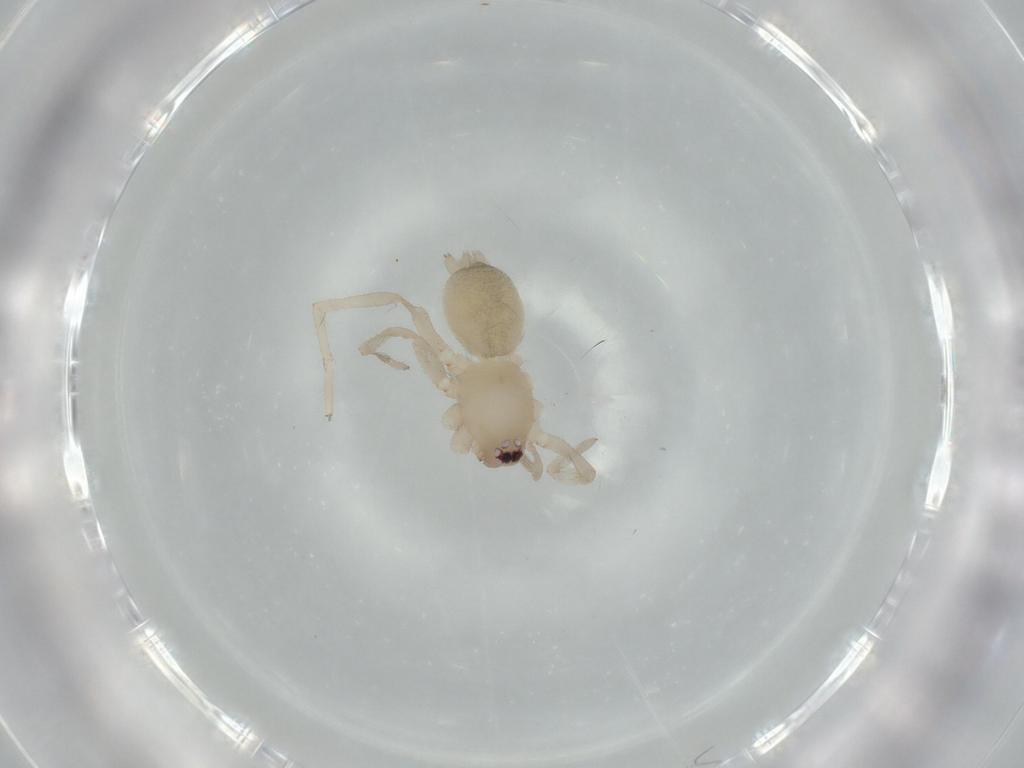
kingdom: Animalia
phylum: Arthropoda
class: Arachnida
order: Araneae
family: Gnaphosidae
